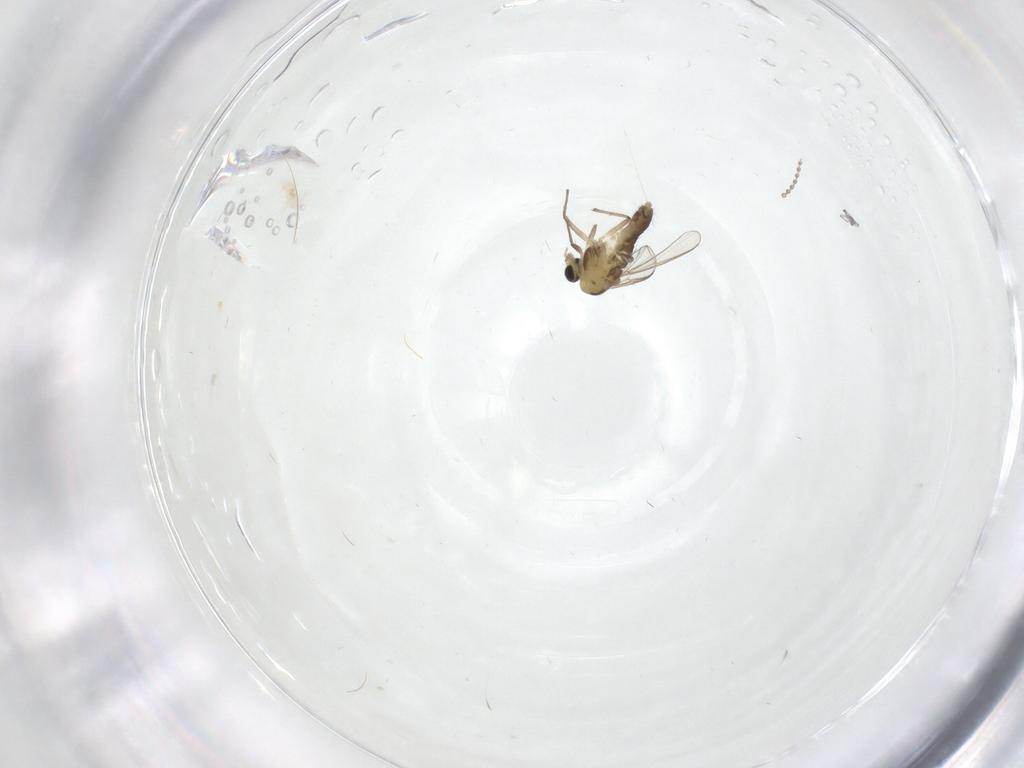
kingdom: Animalia
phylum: Arthropoda
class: Insecta
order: Diptera
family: Chironomidae
